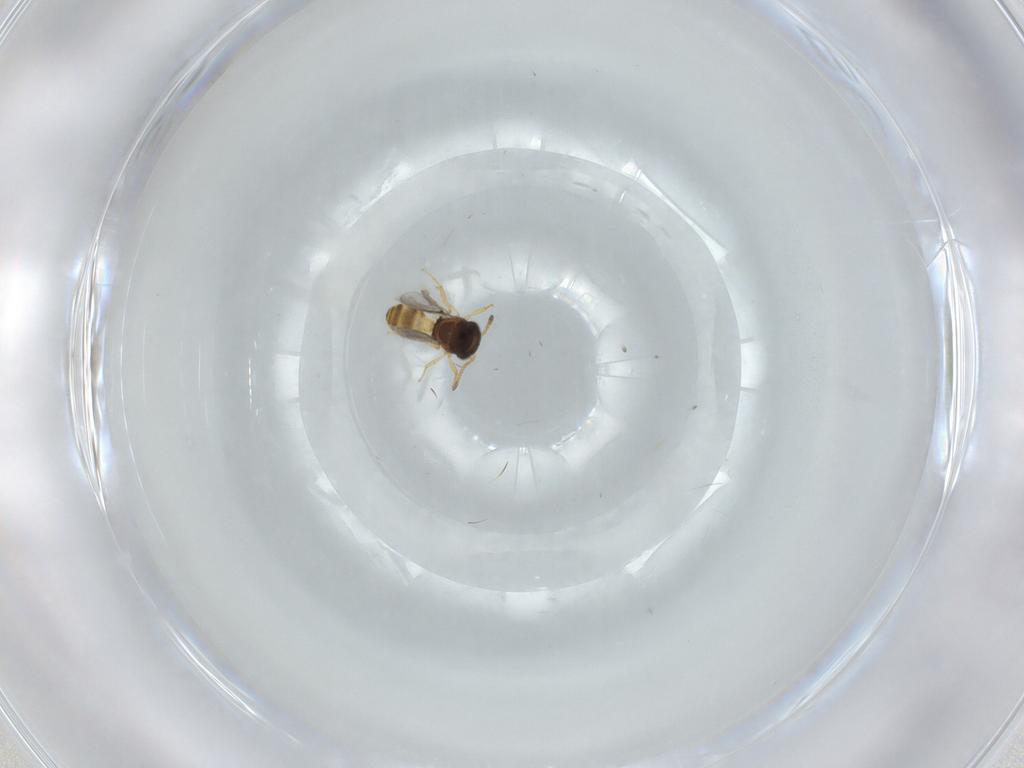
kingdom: Animalia
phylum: Arthropoda
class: Insecta
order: Hymenoptera
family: Scelionidae
